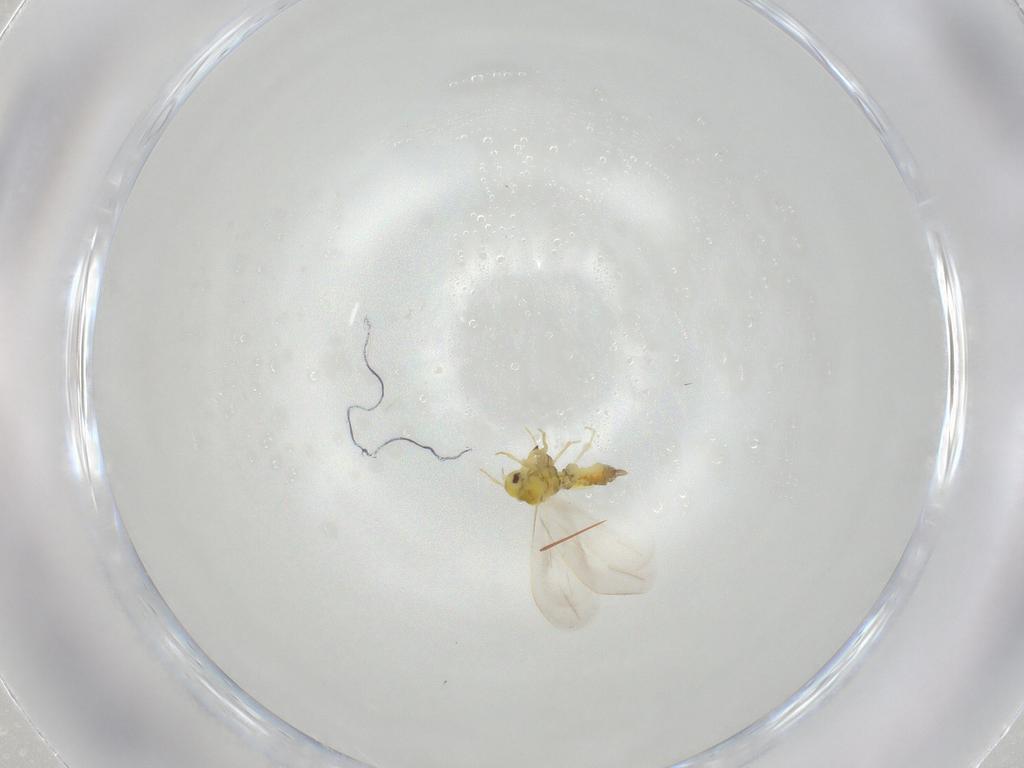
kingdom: Animalia
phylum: Arthropoda
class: Insecta
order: Hemiptera
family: Aleyrodidae
